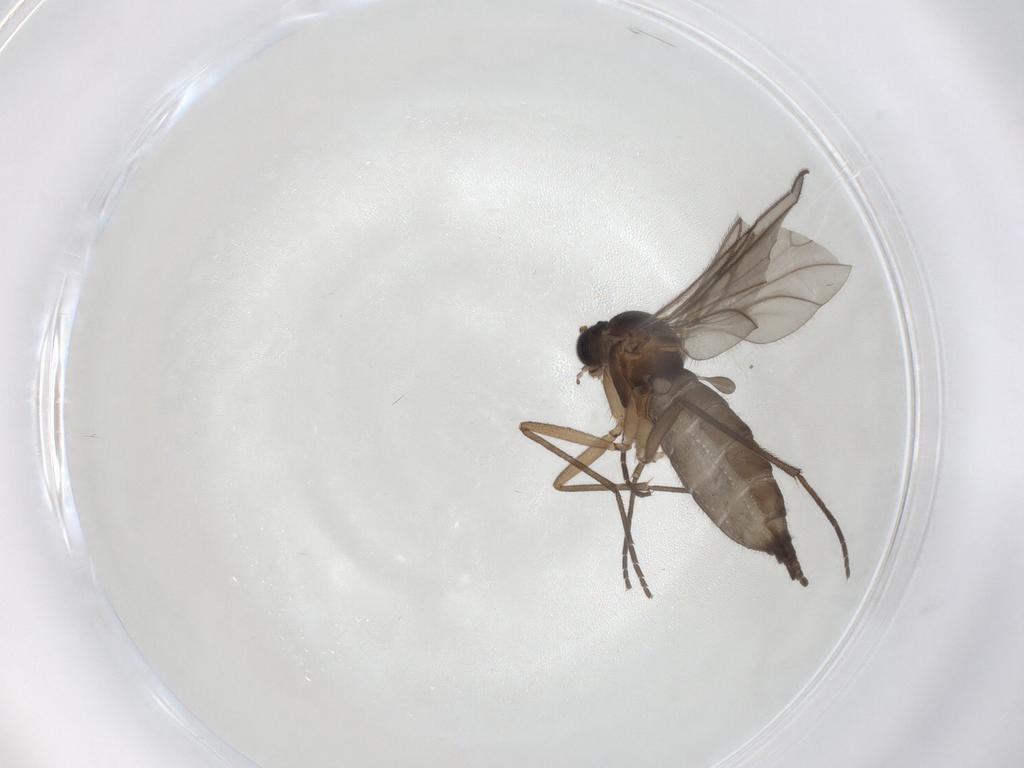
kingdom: Animalia
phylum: Arthropoda
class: Insecta
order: Diptera
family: Sciaridae
